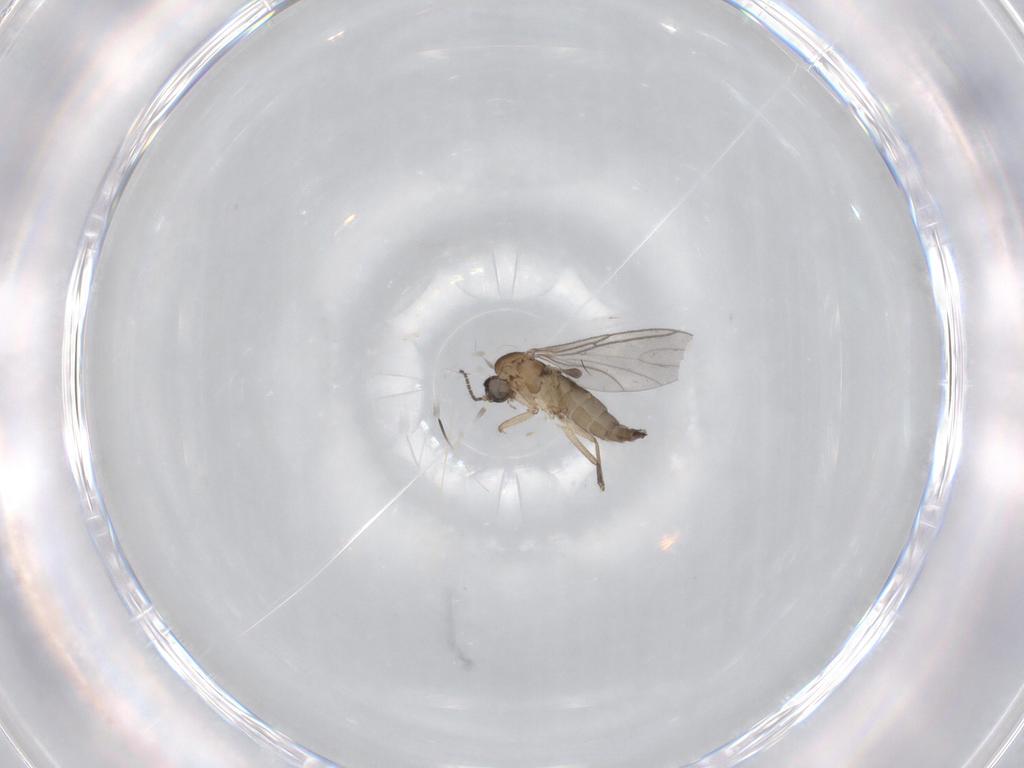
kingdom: Animalia
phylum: Arthropoda
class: Insecta
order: Diptera
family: Sciaridae
